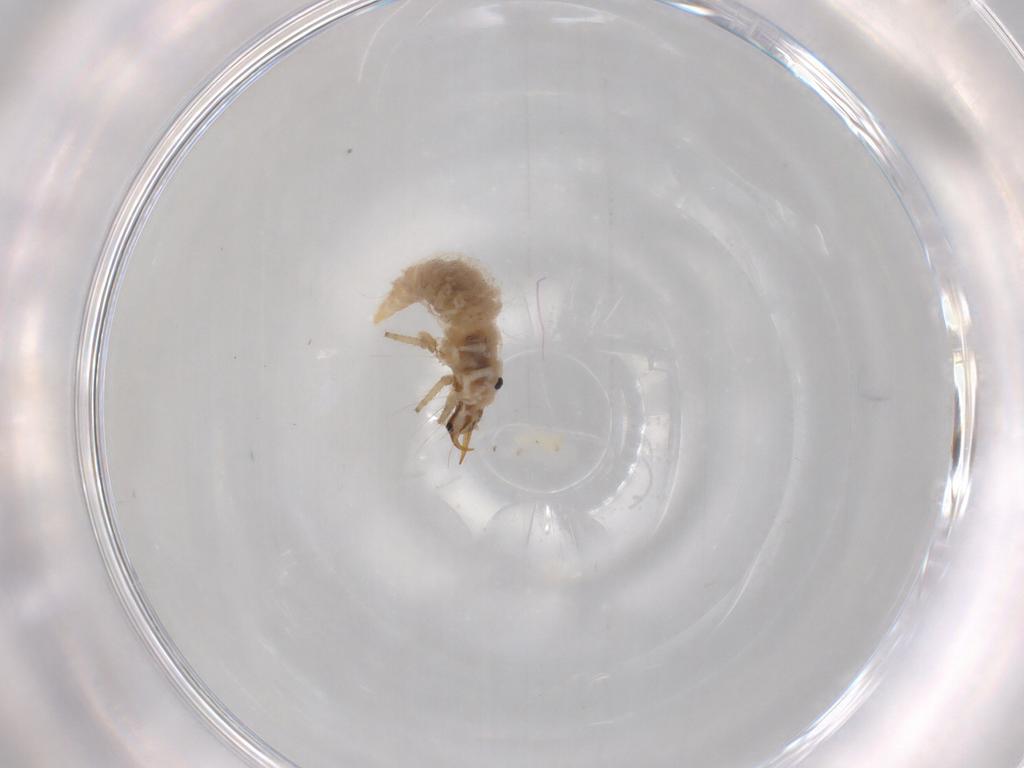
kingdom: Animalia
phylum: Arthropoda
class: Insecta
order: Neuroptera
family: Chrysopidae
